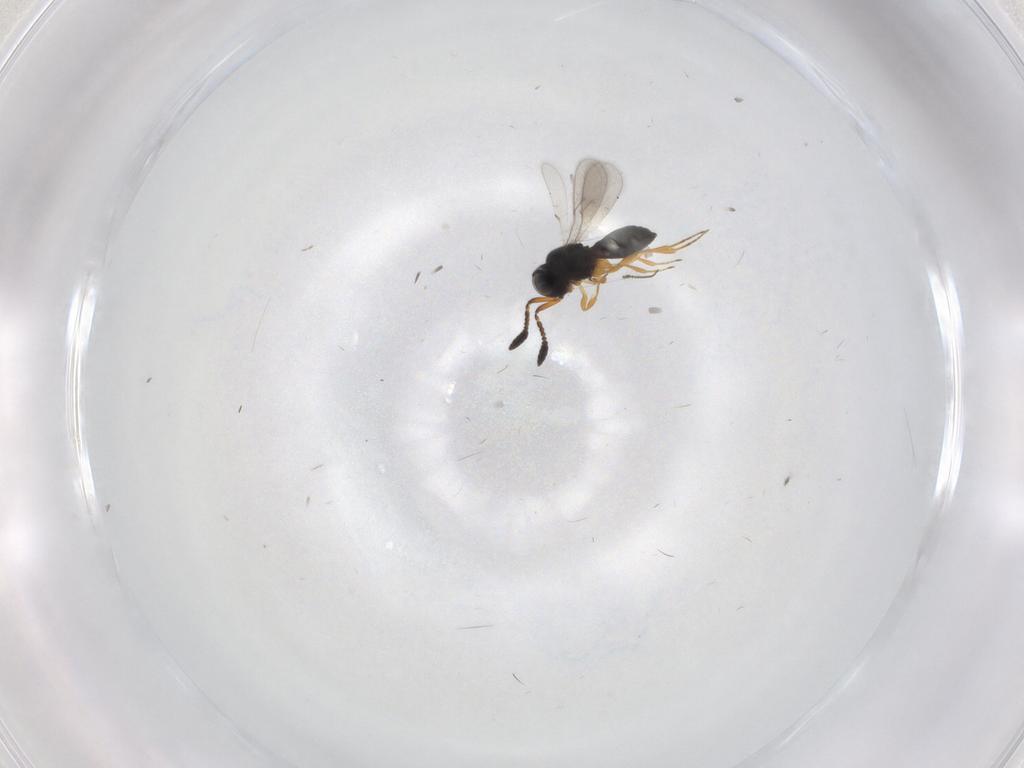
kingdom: Animalia
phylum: Arthropoda
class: Insecta
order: Hymenoptera
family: Scelionidae
